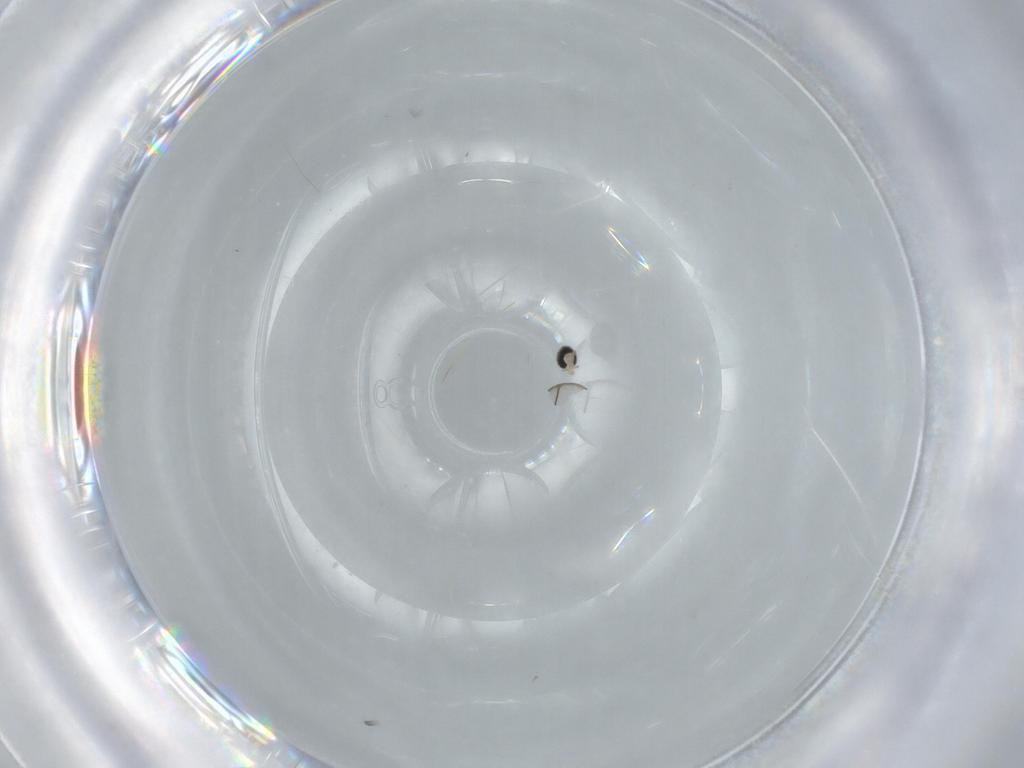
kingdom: Animalia
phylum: Arthropoda
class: Insecta
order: Diptera
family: Cecidomyiidae
